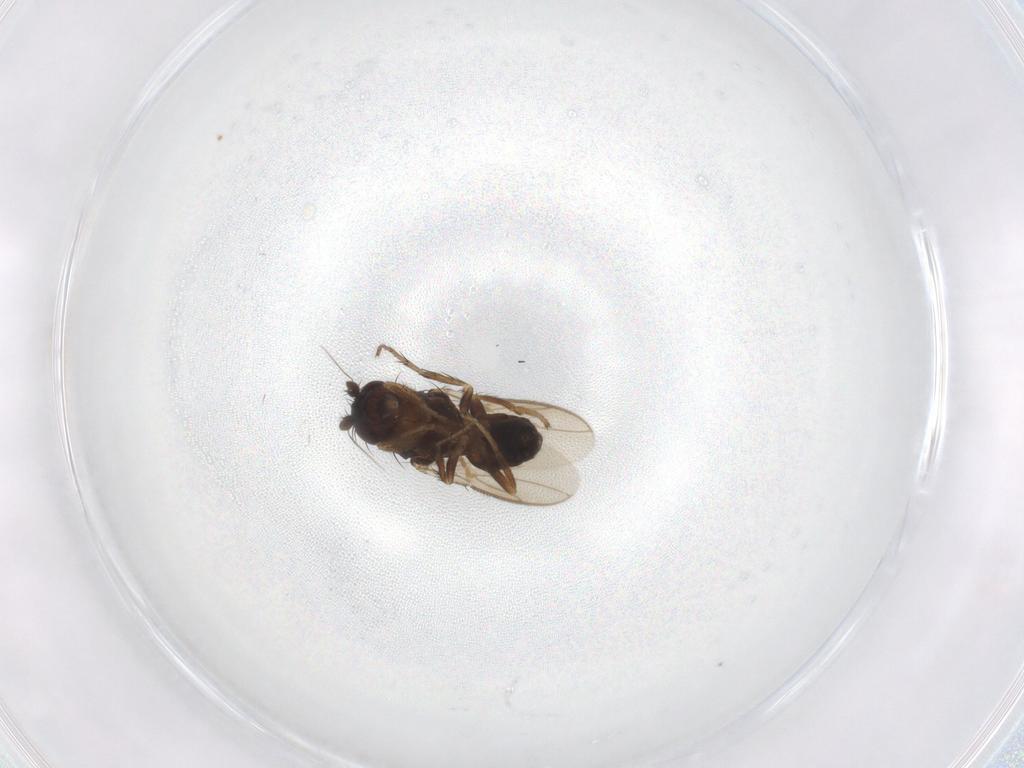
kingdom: Animalia
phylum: Arthropoda
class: Insecta
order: Diptera
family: Sphaeroceridae
